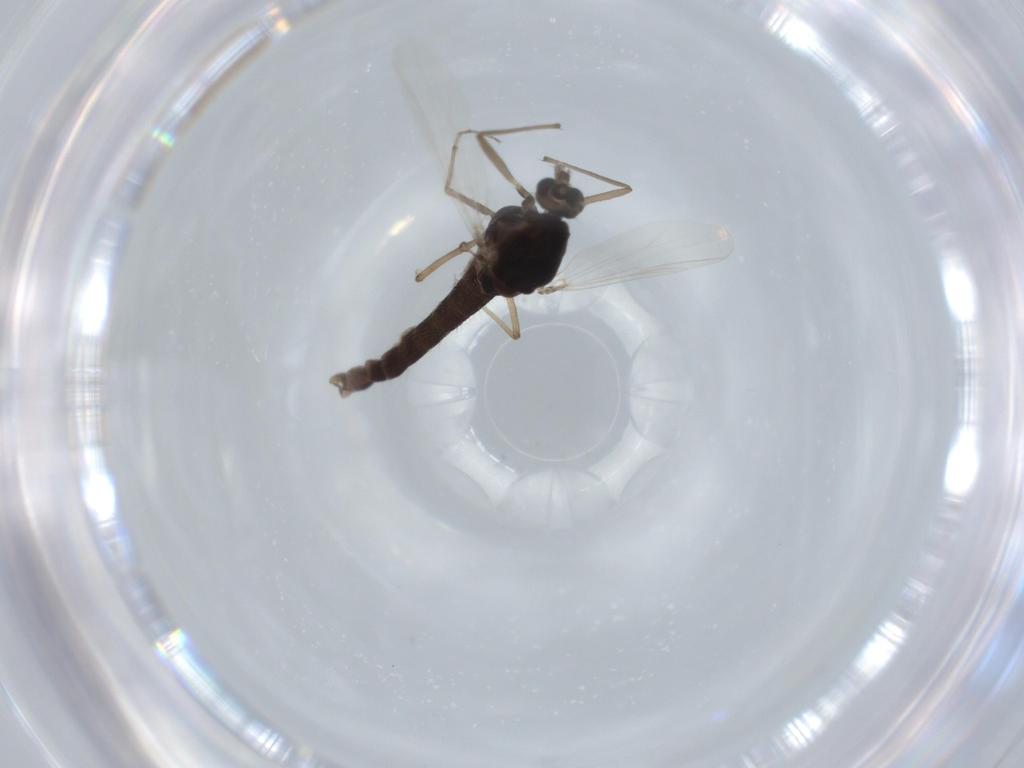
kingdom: Animalia
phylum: Arthropoda
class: Insecta
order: Diptera
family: Sciaridae
